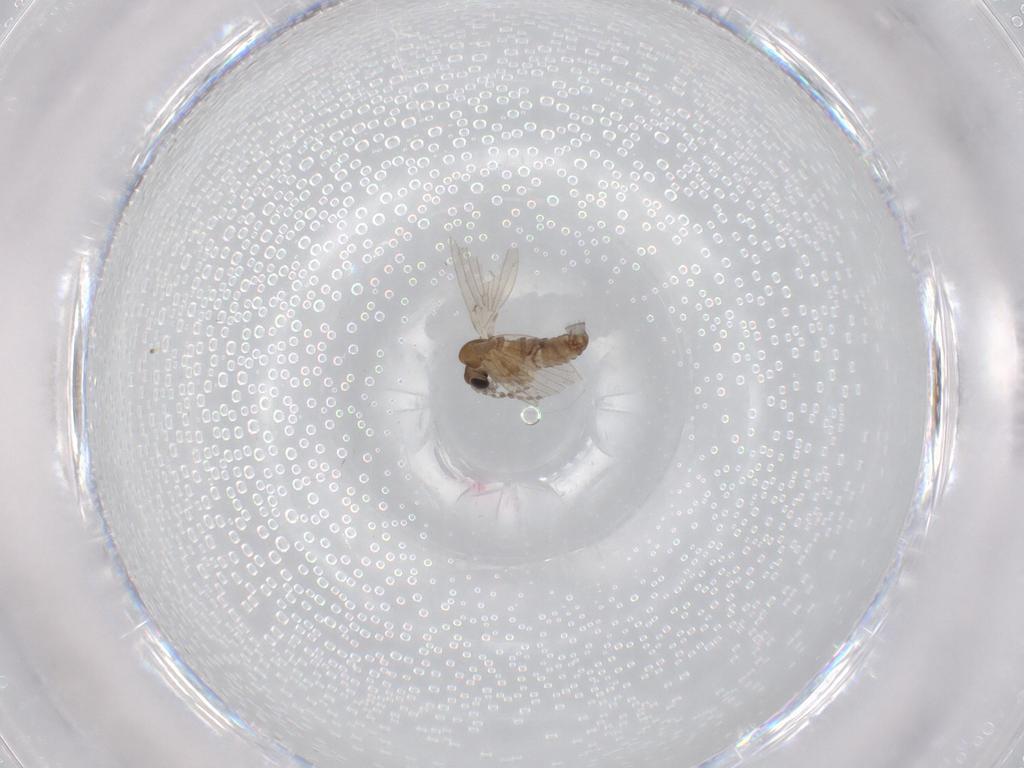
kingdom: Animalia
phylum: Arthropoda
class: Insecta
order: Diptera
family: Psychodidae
